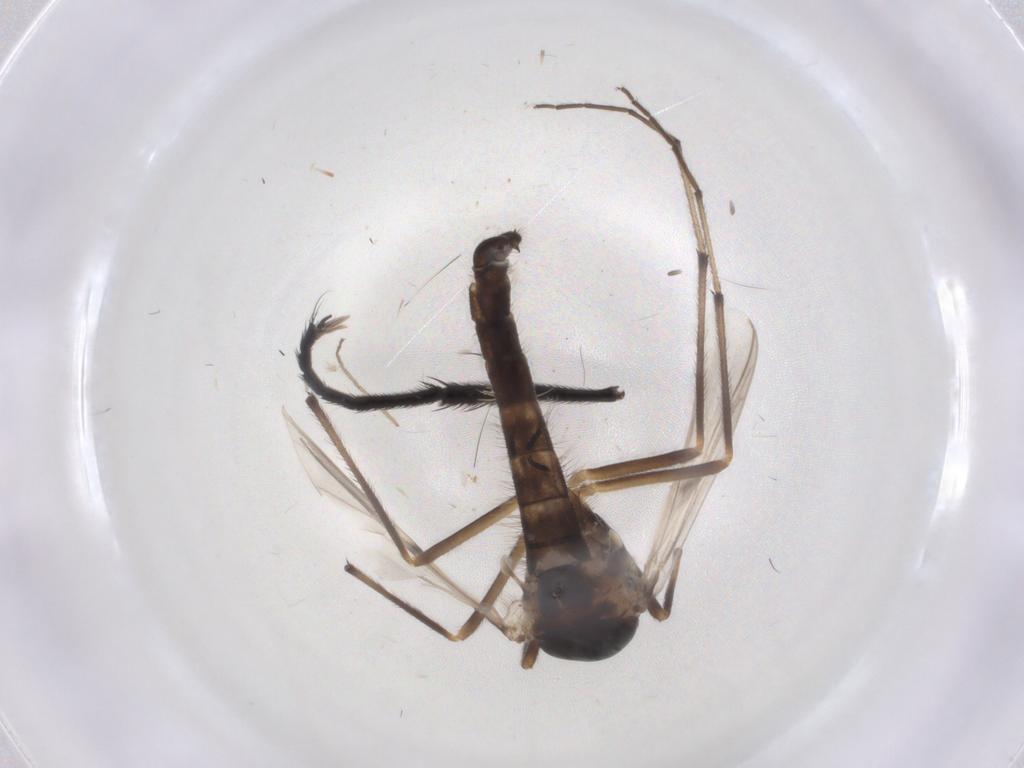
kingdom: Animalia
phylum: Arthropoda
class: Insecta
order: Diptera
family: Chironomidae
